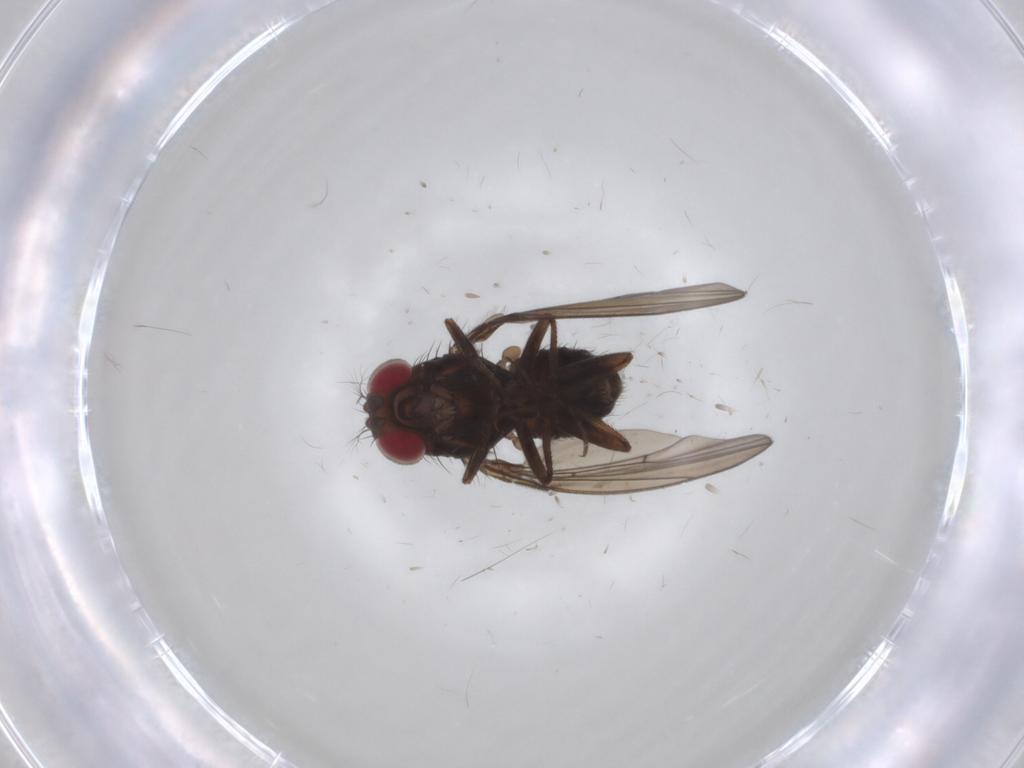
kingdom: Animalia
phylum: Arthropoda
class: Insecta
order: Diptera
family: Drosophilidae
